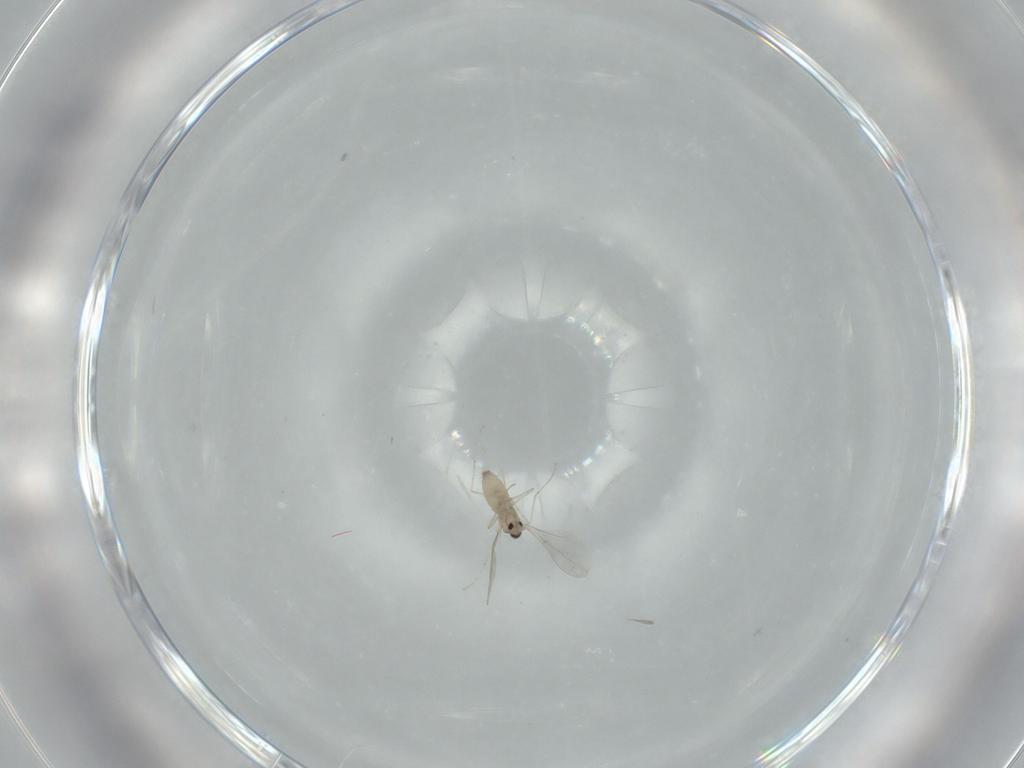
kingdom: Animalia
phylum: Arthropoda
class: Insecta
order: Diptera
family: Cecidomyiidae
